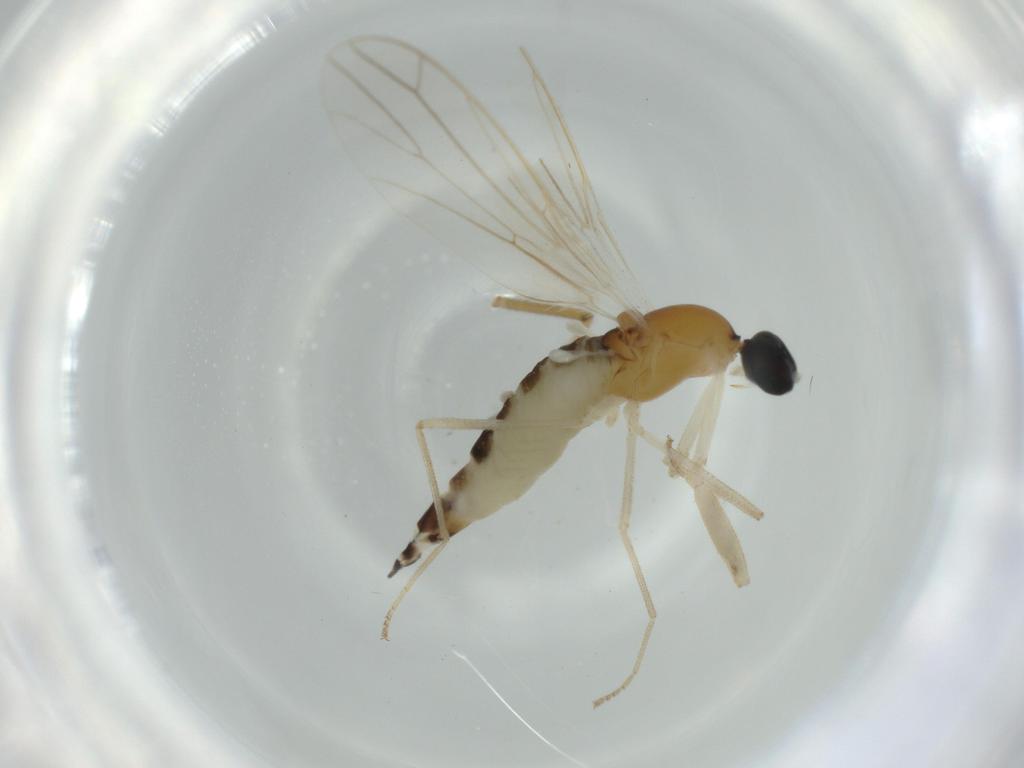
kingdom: Animalia
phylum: Arthropoda
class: Insecta
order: Diptera
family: Empididae
